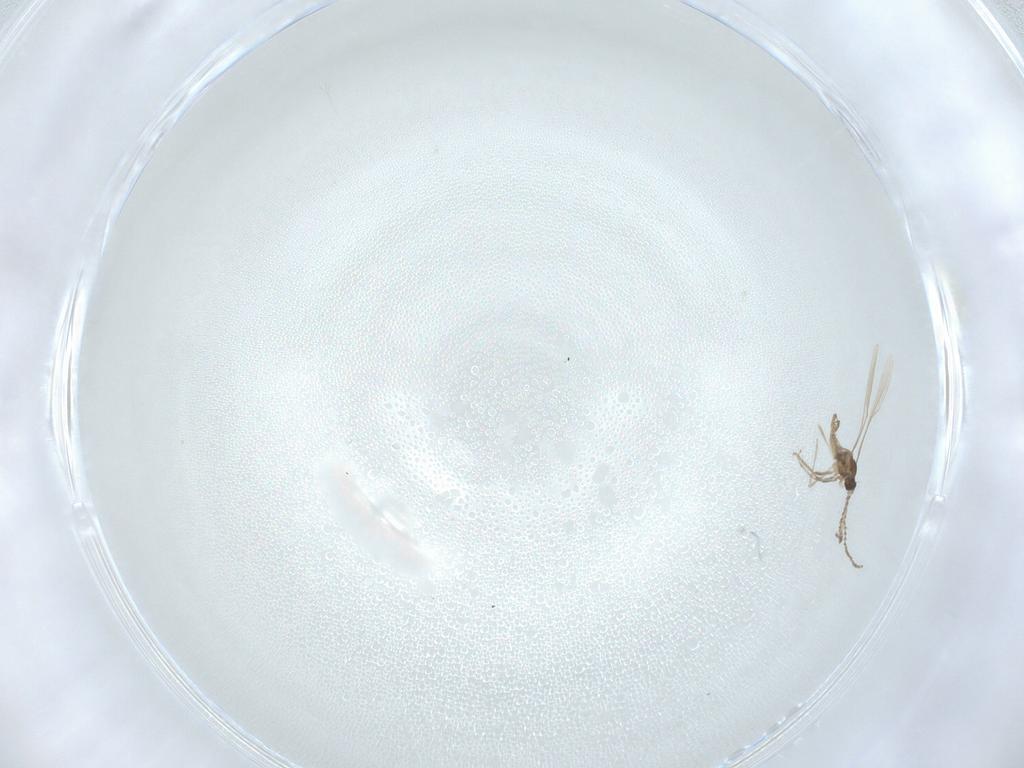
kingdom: Animalia
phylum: Arthropoda
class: Insecta
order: Diptera
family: Cecidomyiidae
